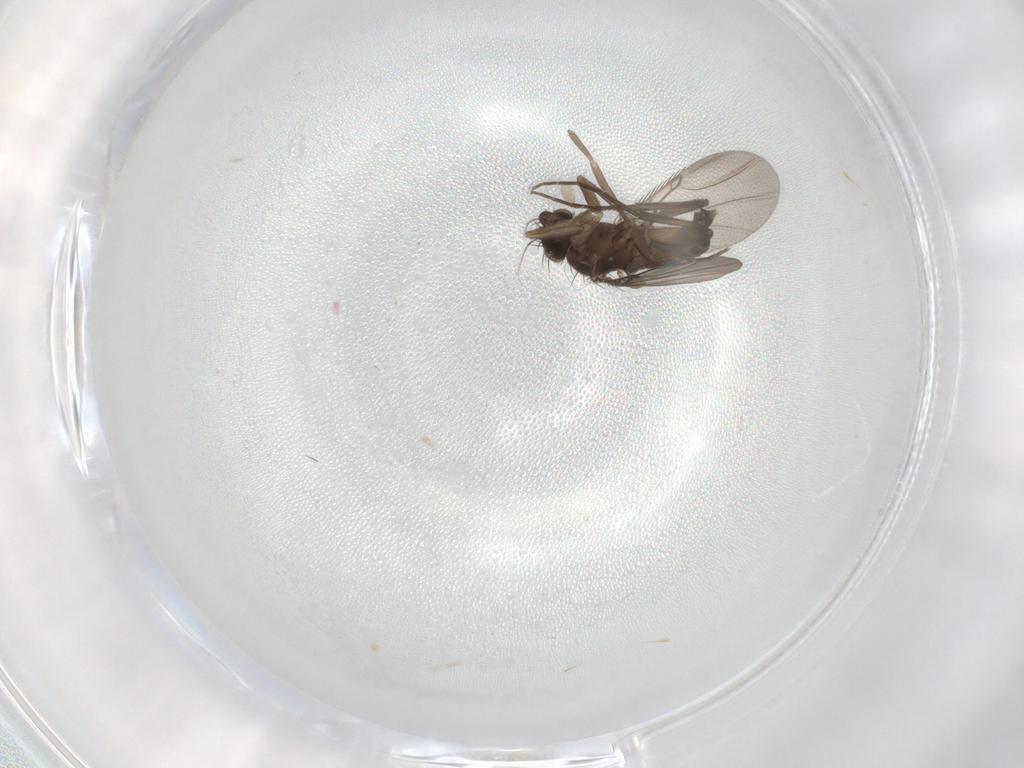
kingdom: Animalia
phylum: Arthropoda
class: Insecta
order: Diptera
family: Phoridae
